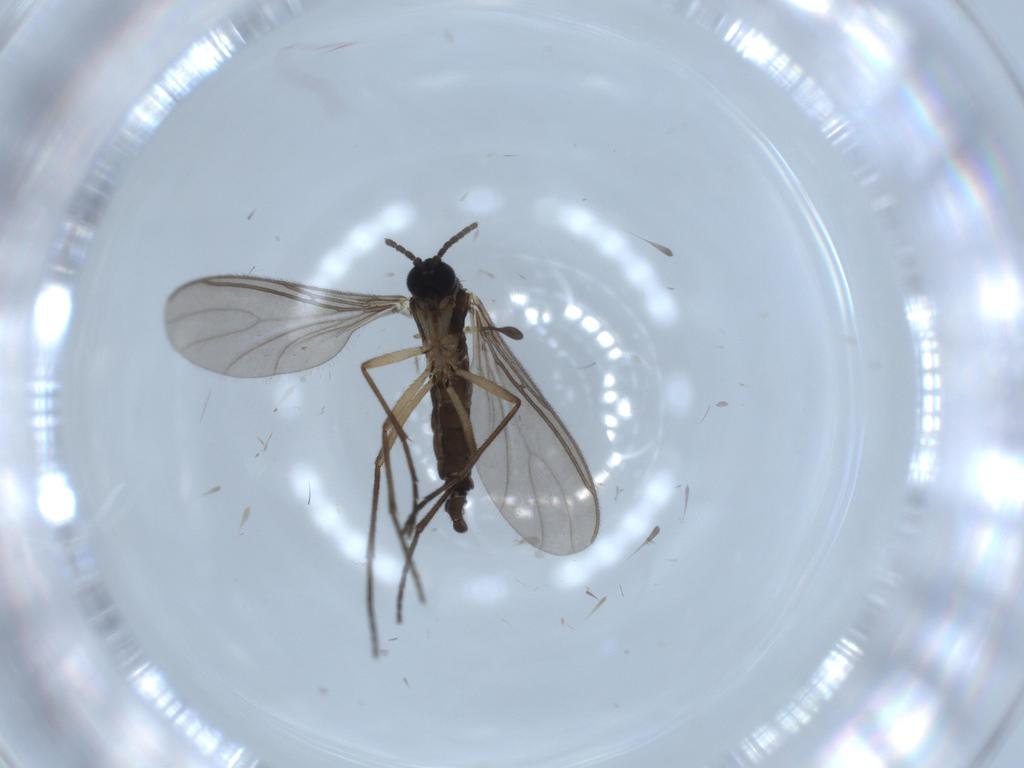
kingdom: Animalia
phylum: Arthropoda
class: Insecta
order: Diptera
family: Sciaridae
